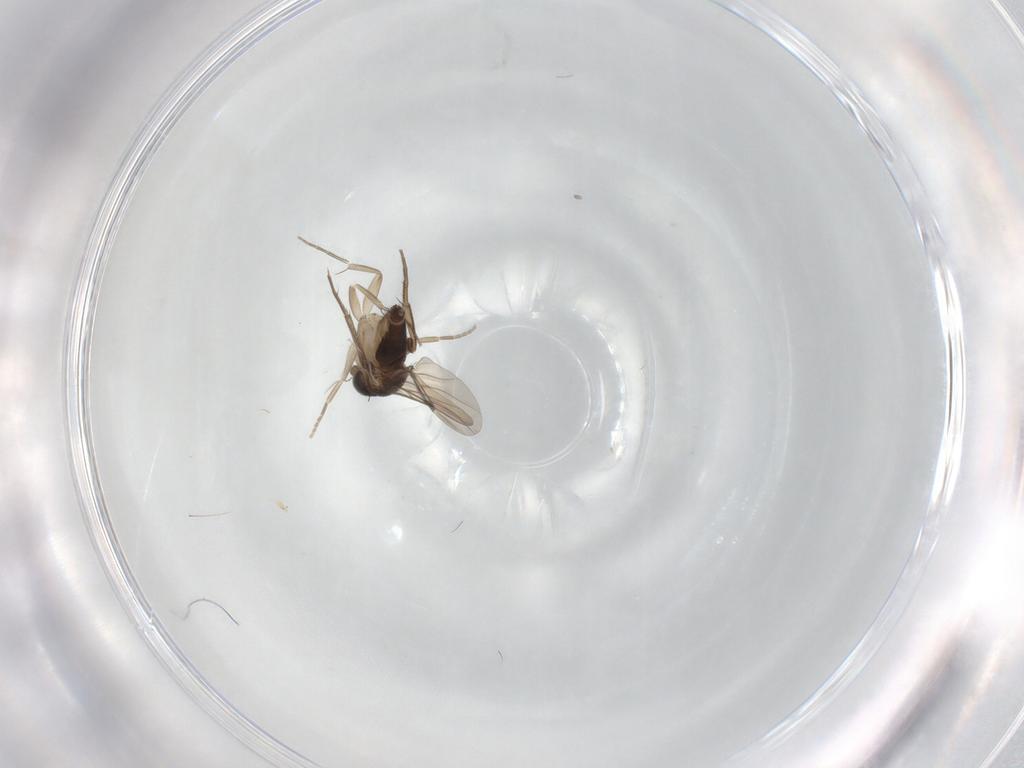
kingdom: Animalia
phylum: Arthropoda
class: Insecta
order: Diptera
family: Phoridae
